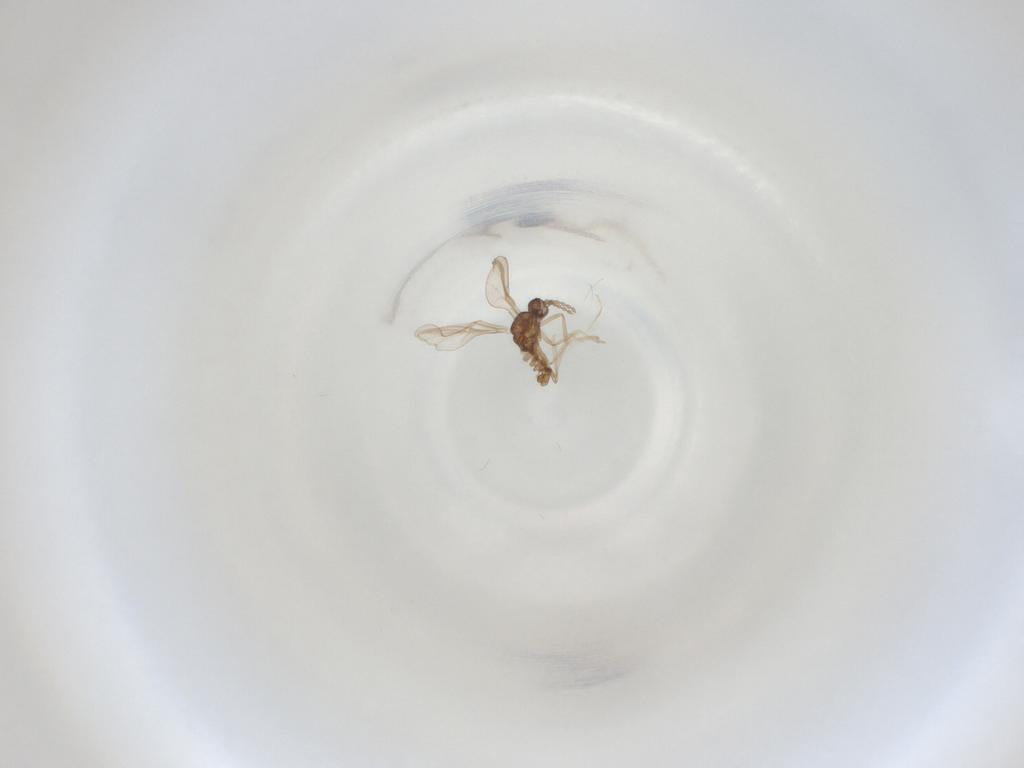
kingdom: Animalia
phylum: Arthropoda
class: Insecta
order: Diptera
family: Cecidomyiidae
